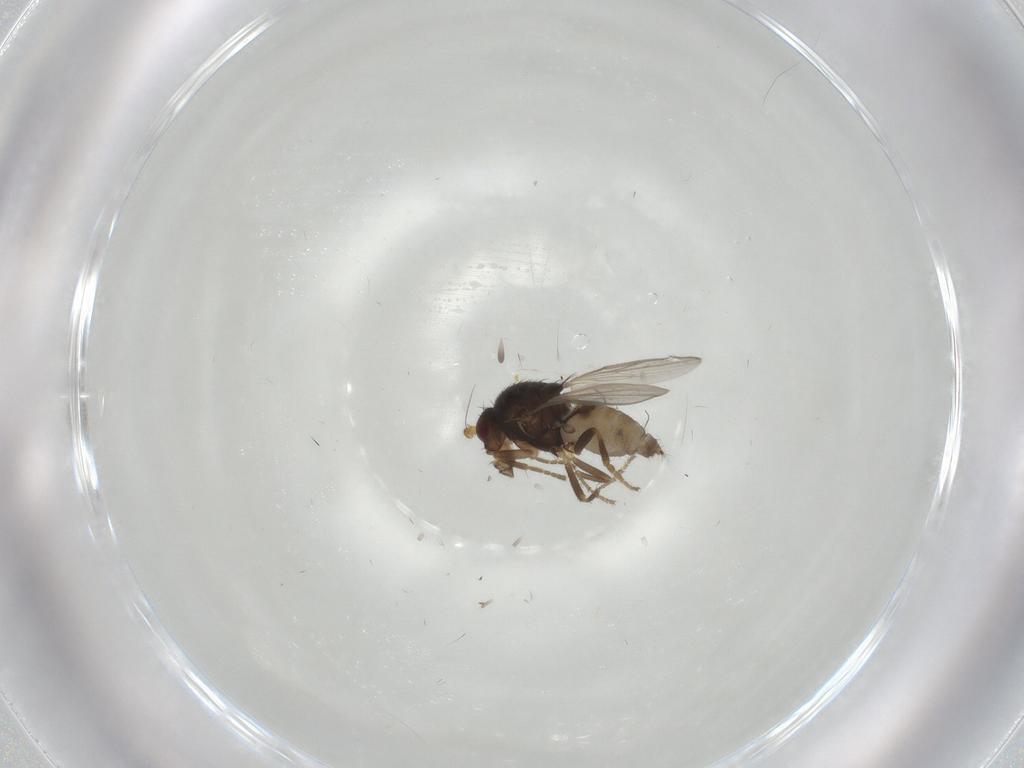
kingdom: Animalia
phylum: Arthropoda
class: Insecta
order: Diptera
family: Sphaeroceridae
